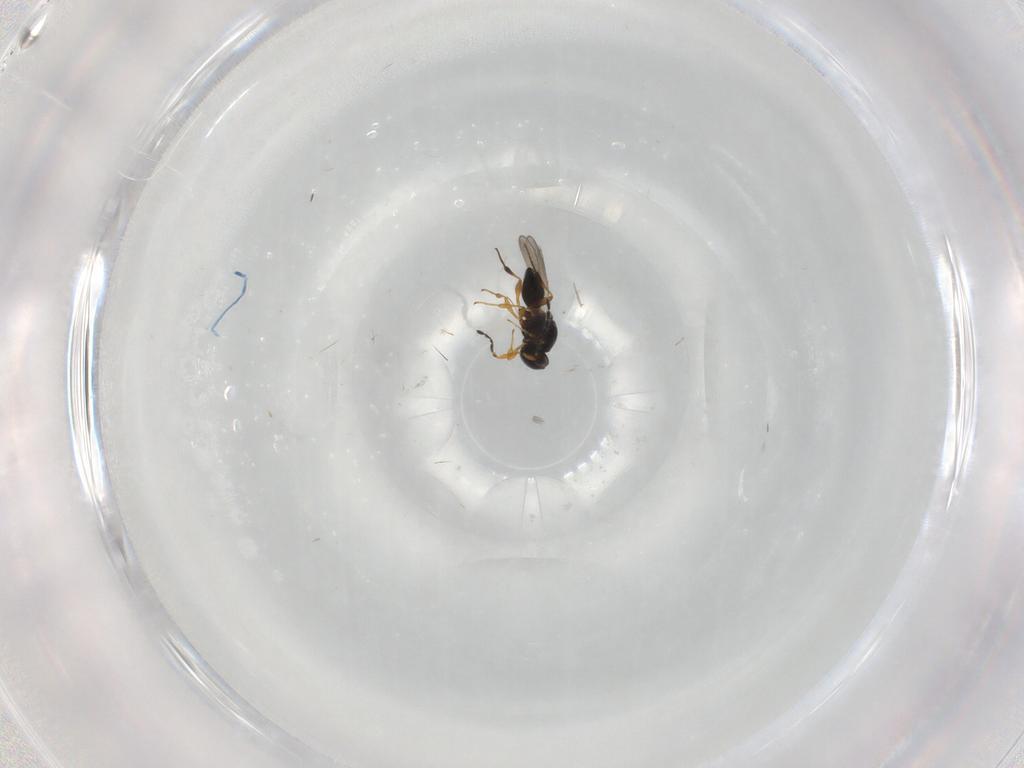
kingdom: Animalia
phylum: Arthropoda
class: Insecta
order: Hymenoptera
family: Platygastridae
